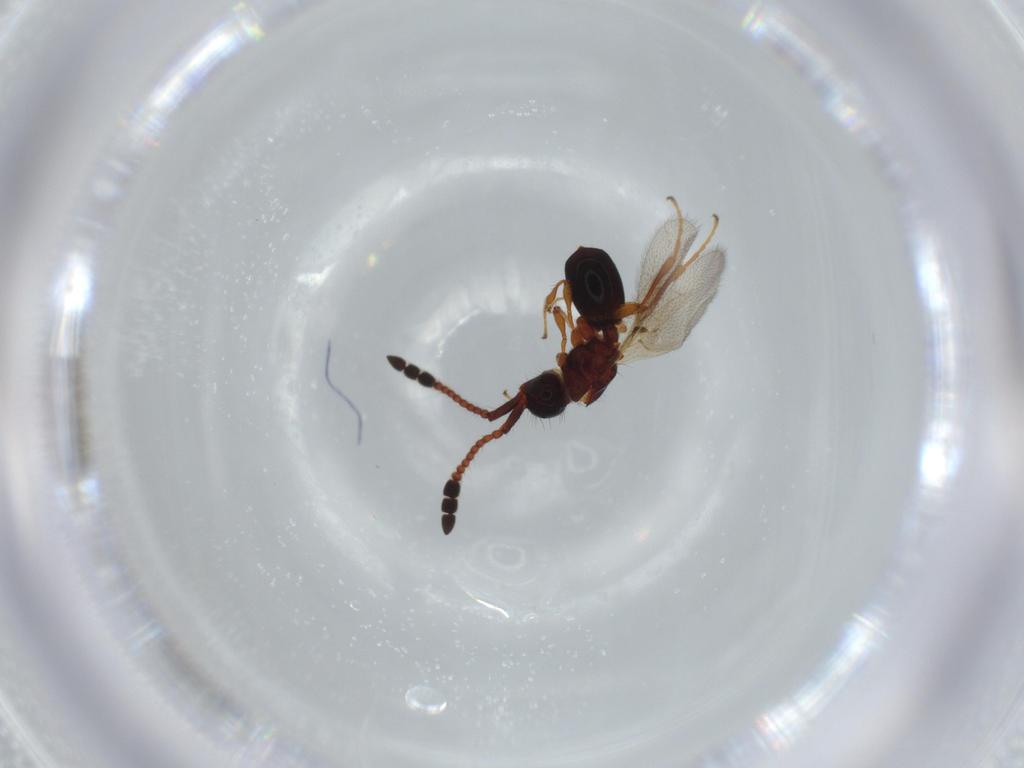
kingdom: Animalia
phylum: Arthropoda
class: Insecta
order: Hymenoptera
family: Diapriidae
